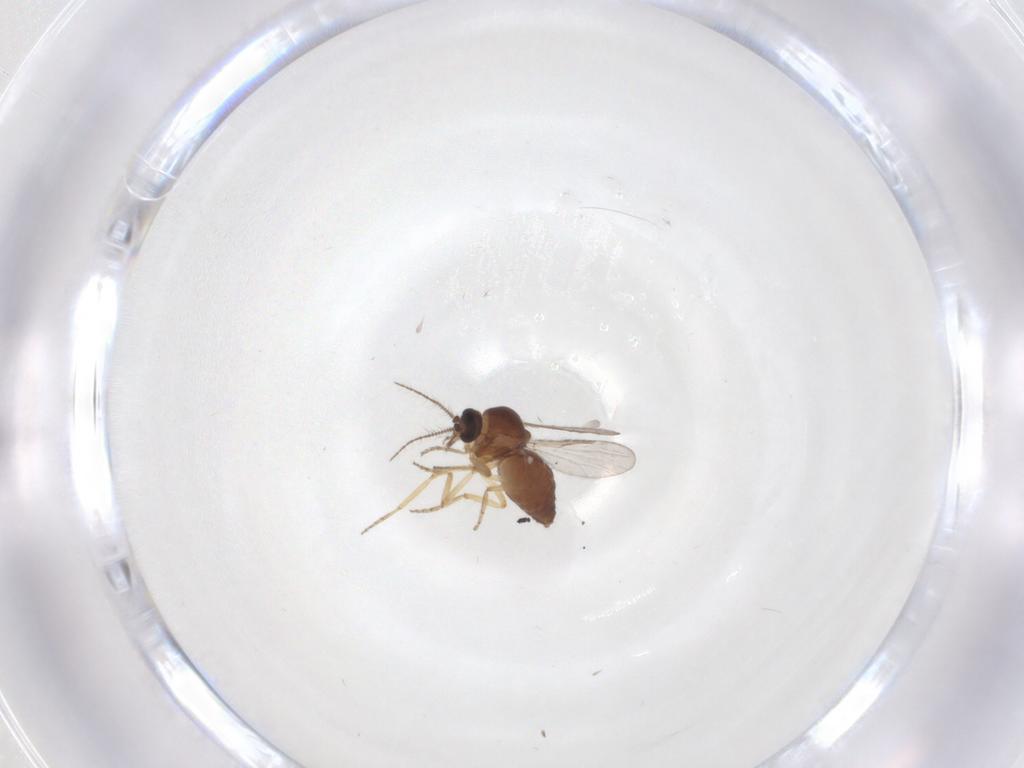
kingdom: Animalia
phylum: Arthropoda
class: Insecta
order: Diptera
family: Ceratopogonidae
